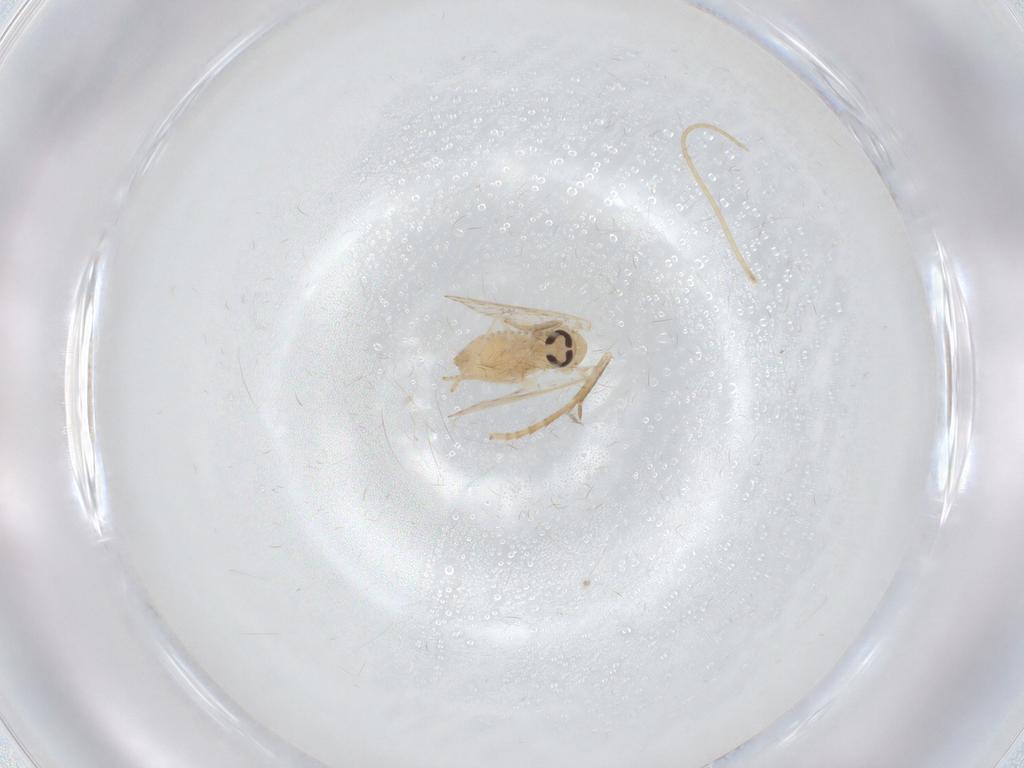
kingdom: Animalia
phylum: Arthropoda
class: Insecta
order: Diptera
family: Psychodidae
